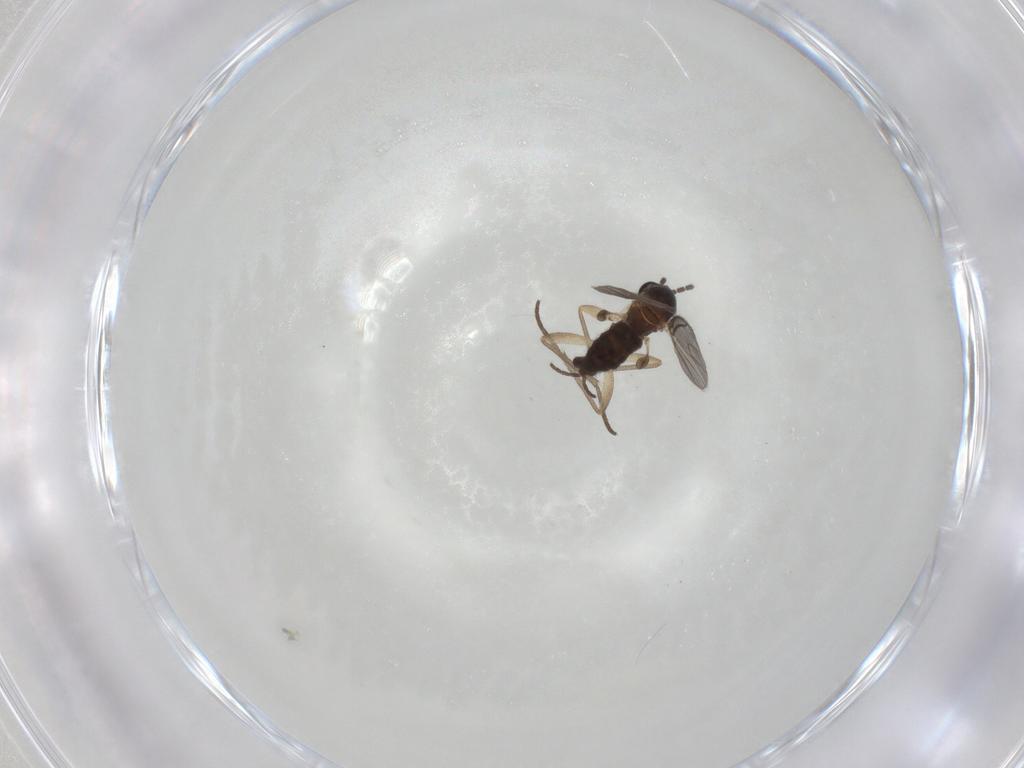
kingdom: Animalia
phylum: Arthropoda
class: Insecta
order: Diptera
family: Sciaridae
